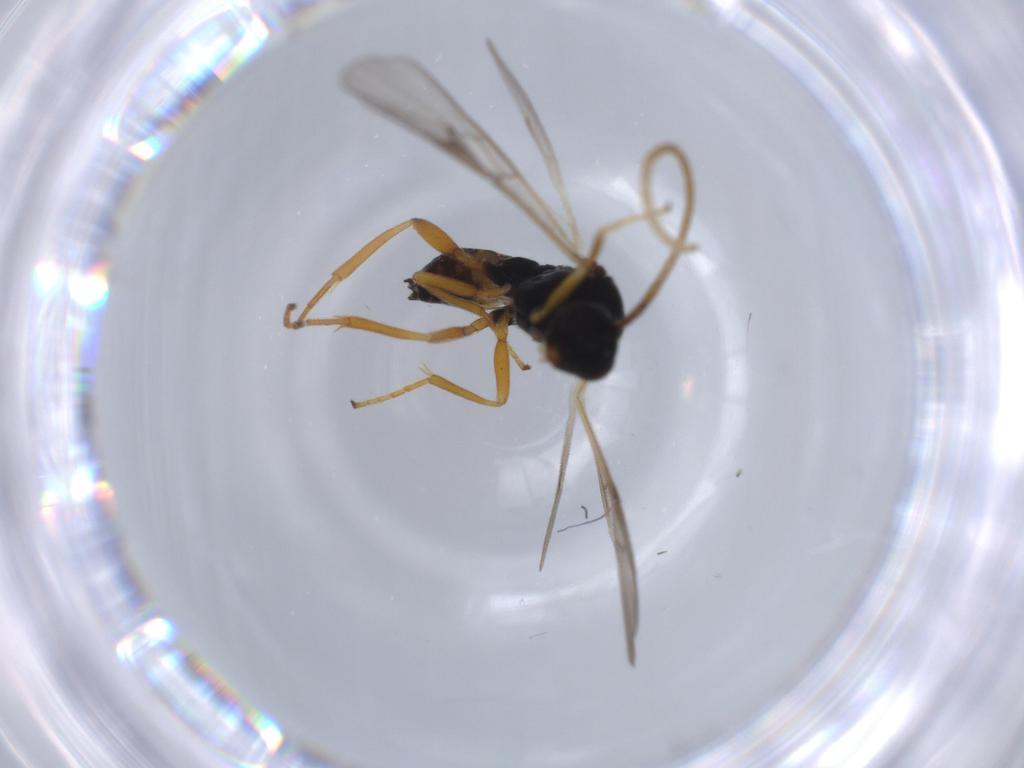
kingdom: Animalia
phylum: Arthropoda
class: Insecta
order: Hymenoptera
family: Braconidae
